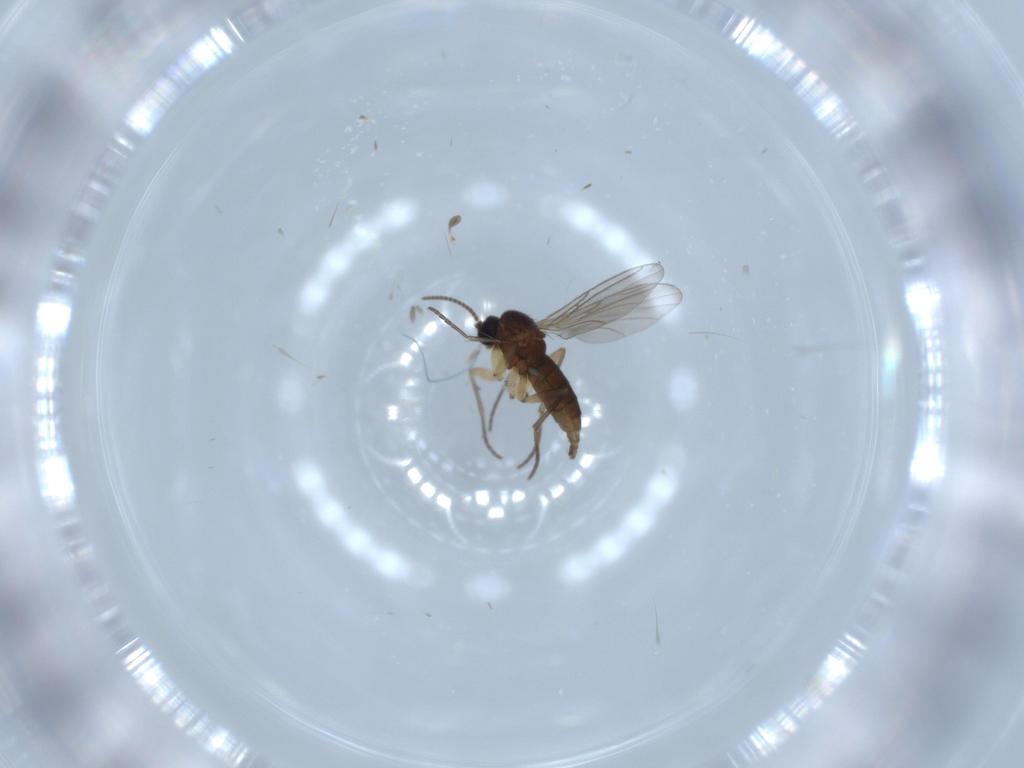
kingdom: Animalia
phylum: Arthropoda
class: Insecta
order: Diptera
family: Sciaridae
